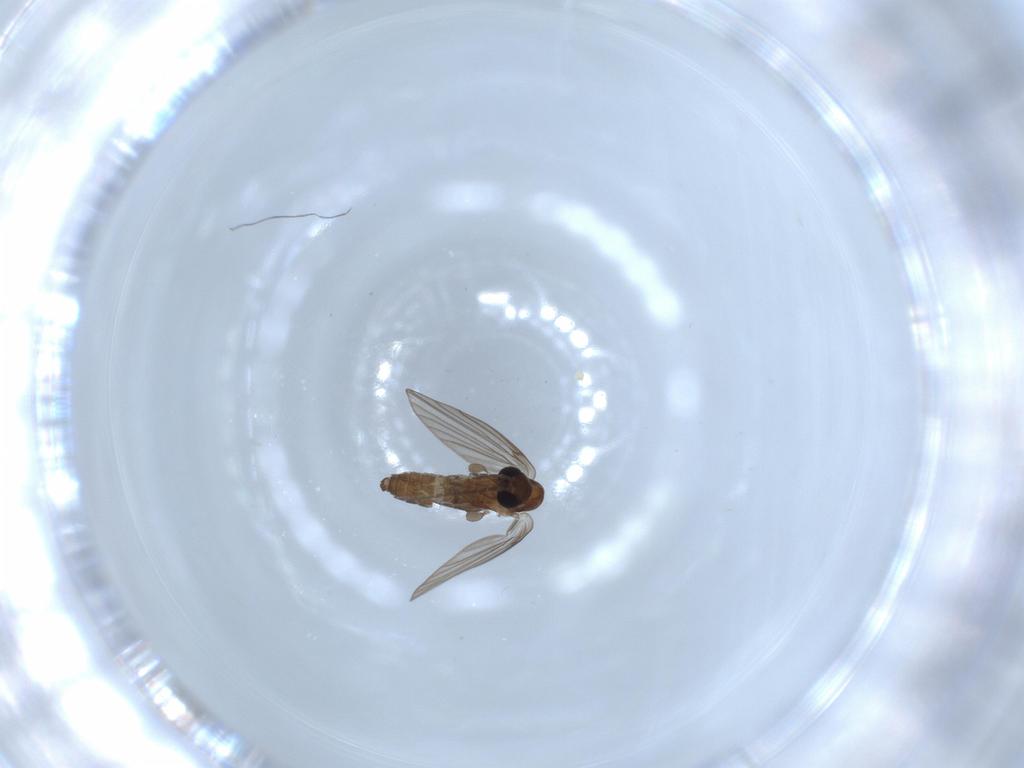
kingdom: Animalia
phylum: Arthropoda
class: Insecta
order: Diptera
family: Psychodidae
